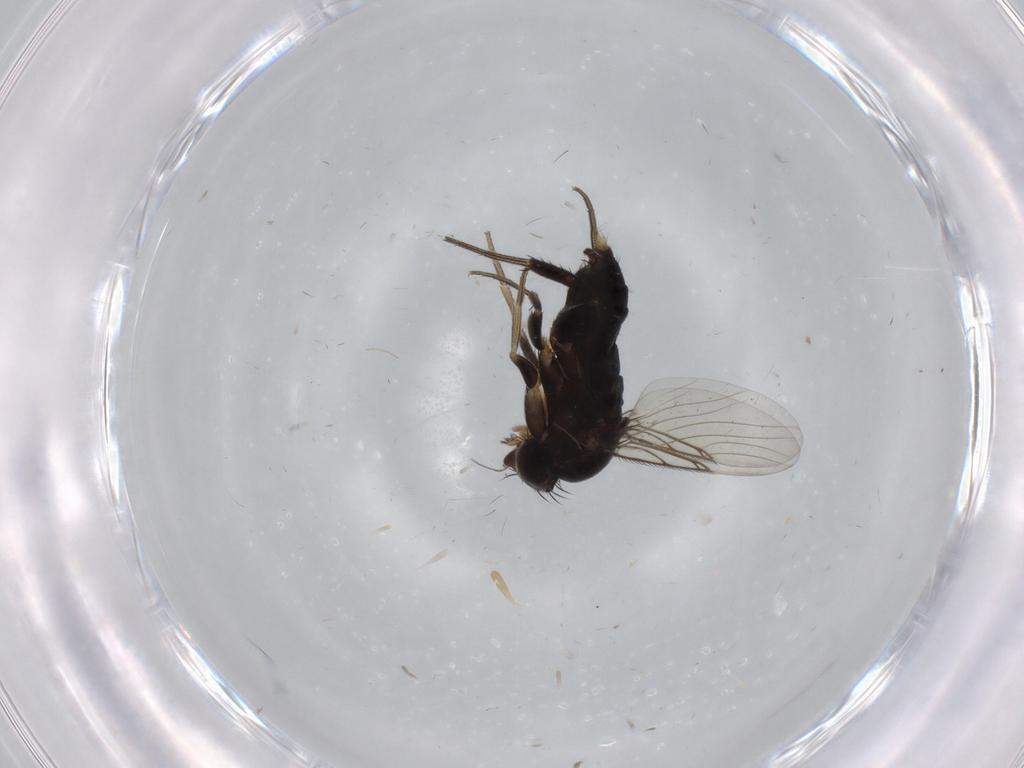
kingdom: Animalia
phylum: Arthropoda
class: Insecta
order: Diptera
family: Phoridae
